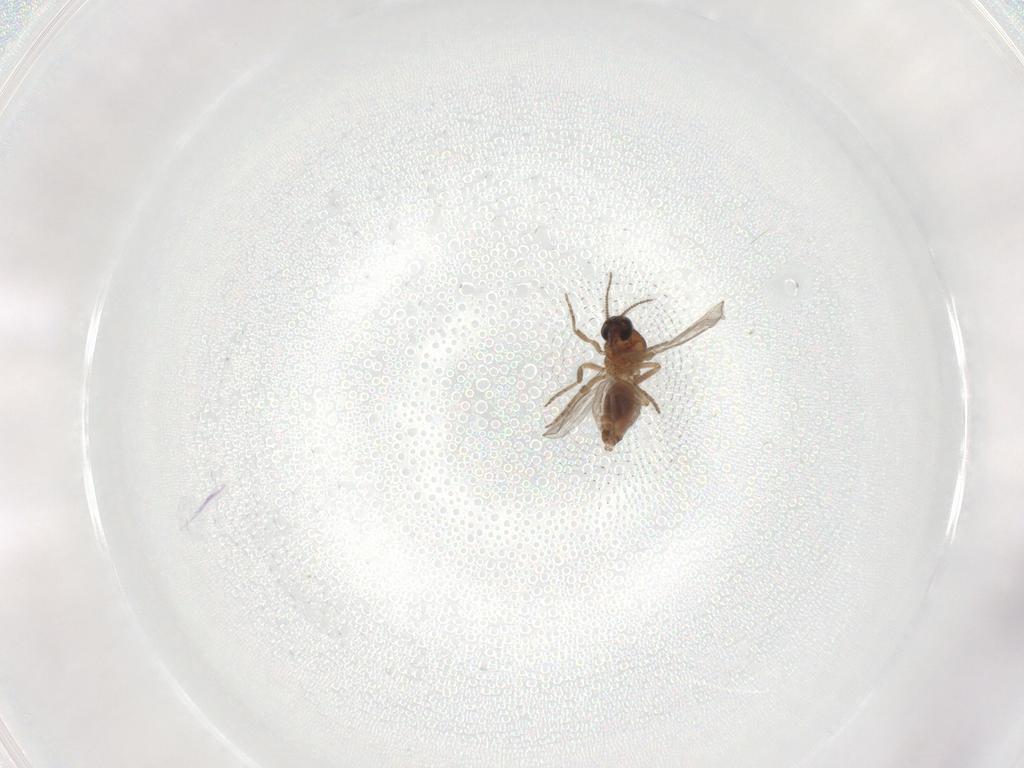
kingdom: Animalia
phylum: Arthropoda
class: Insecta
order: Diptera
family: Chironomidae
